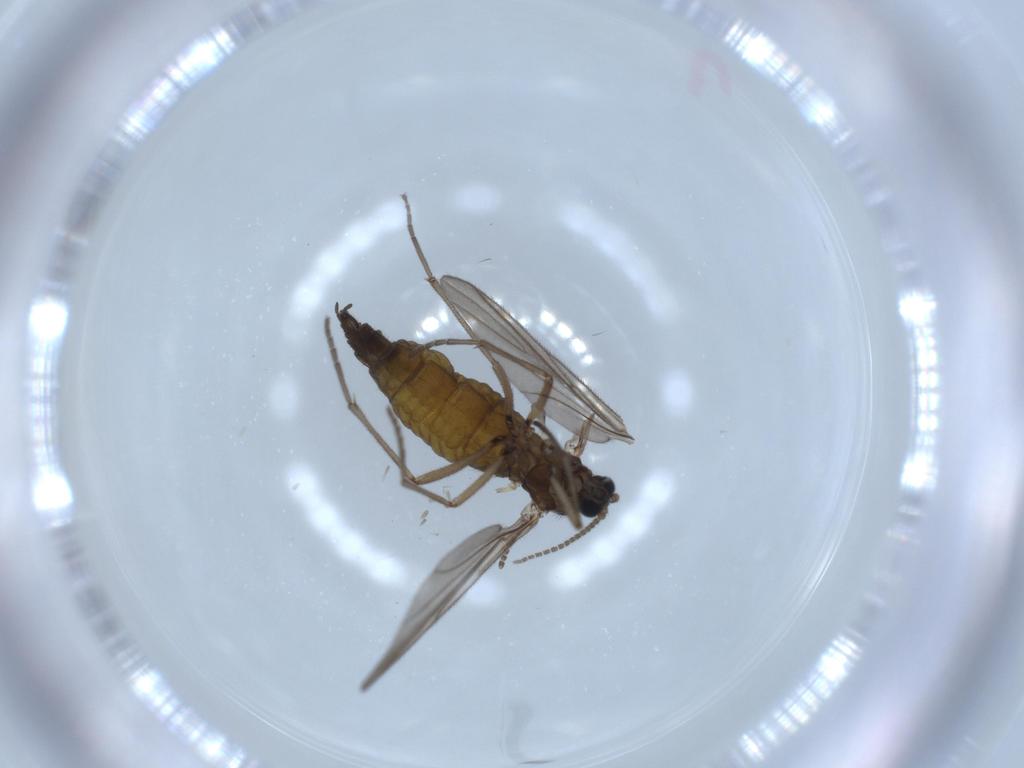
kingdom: Animalia
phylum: Arthropoda
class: Insecta
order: Diptera
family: Sciaridae
